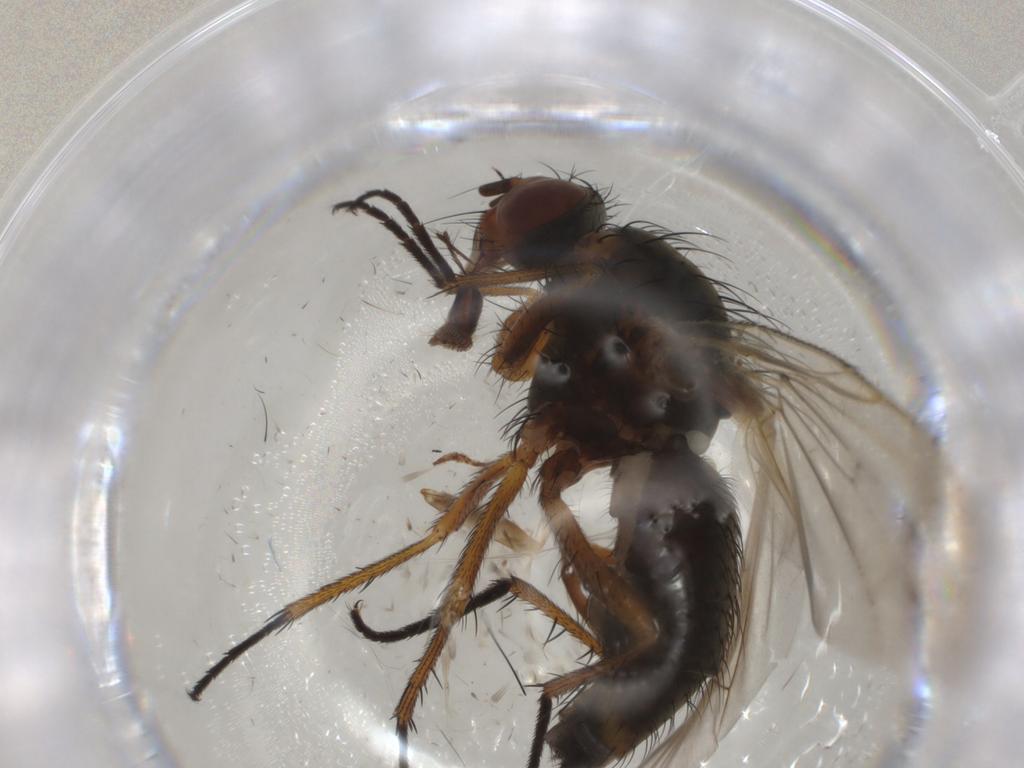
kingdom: Animalia
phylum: Arthropoda
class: Insecta
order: Diptera
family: Anthomyiidae
